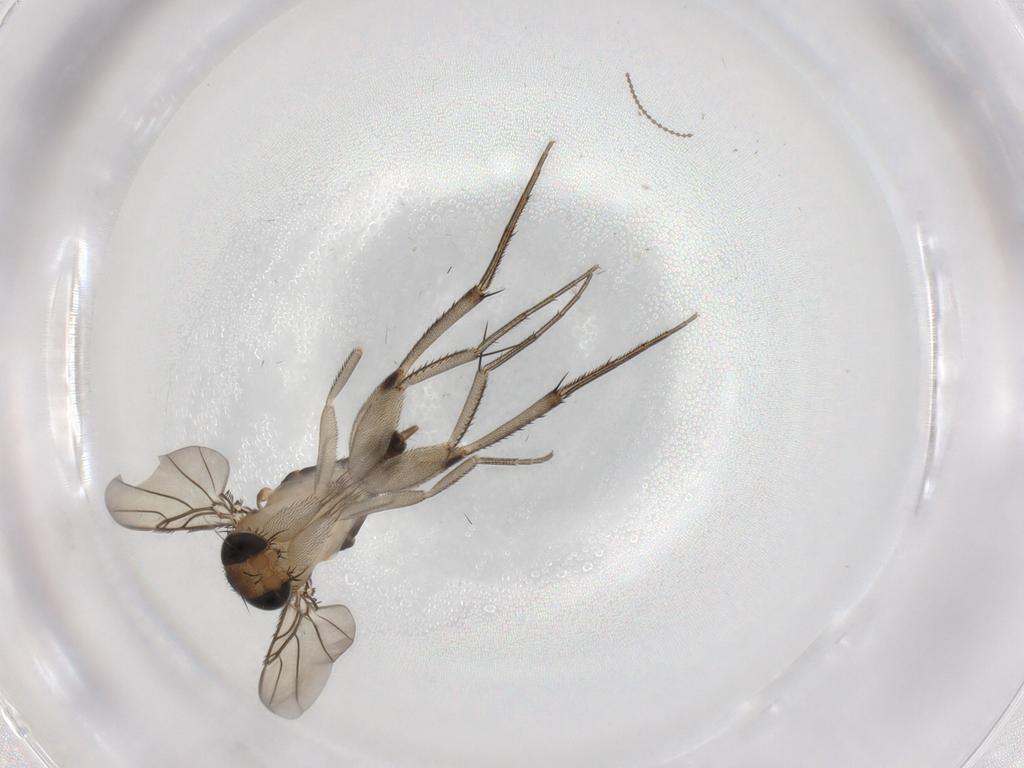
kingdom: Animalia
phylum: Arthropoda
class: Insecta
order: Diptera
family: Phoridae
